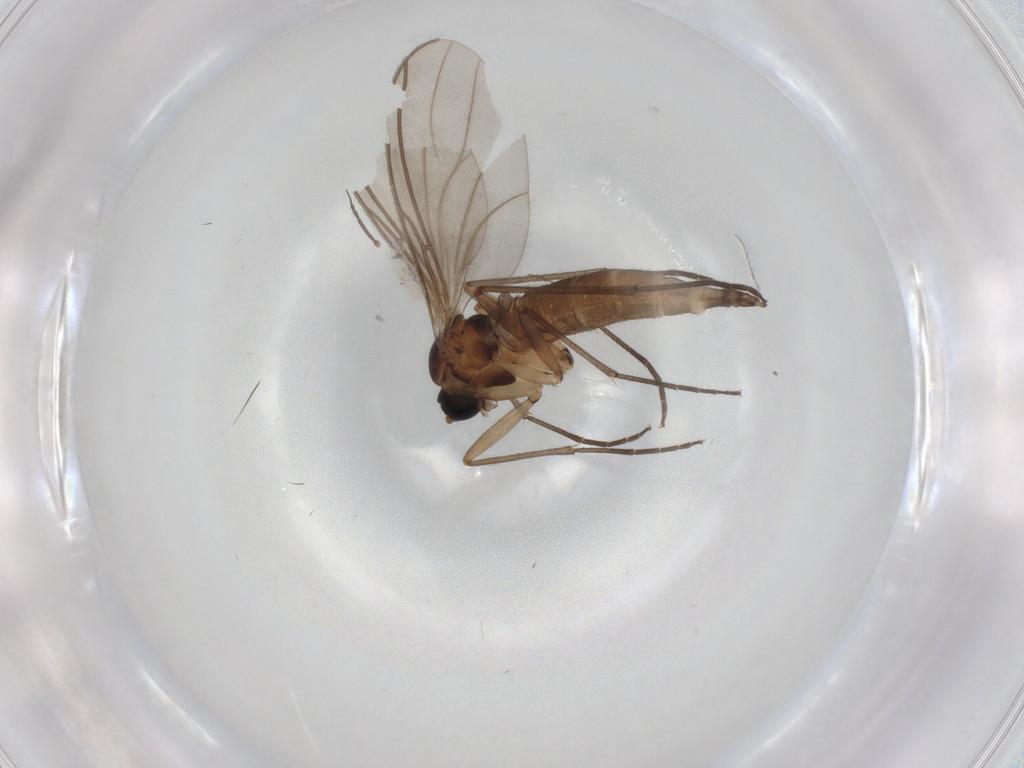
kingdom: Animalia
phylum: Arthropoda
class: Insecta
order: Diptera
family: Sciaridae
